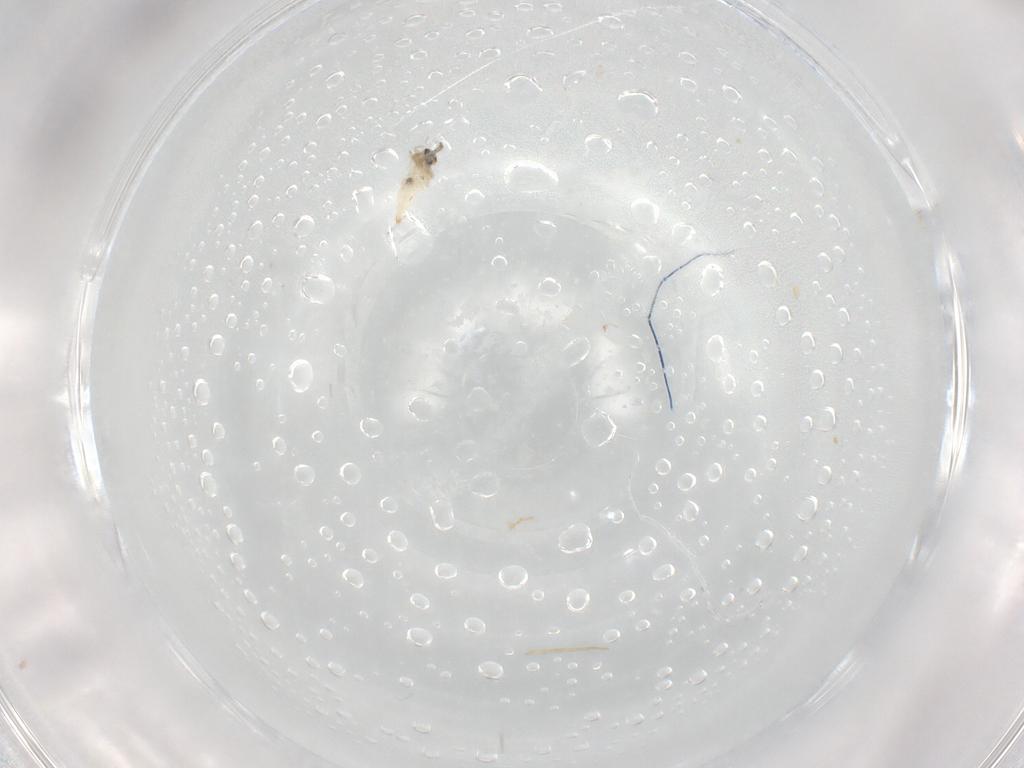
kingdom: Animalia
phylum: Arthropoda
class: Insecta
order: Diptera
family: Cecidomyiidae
